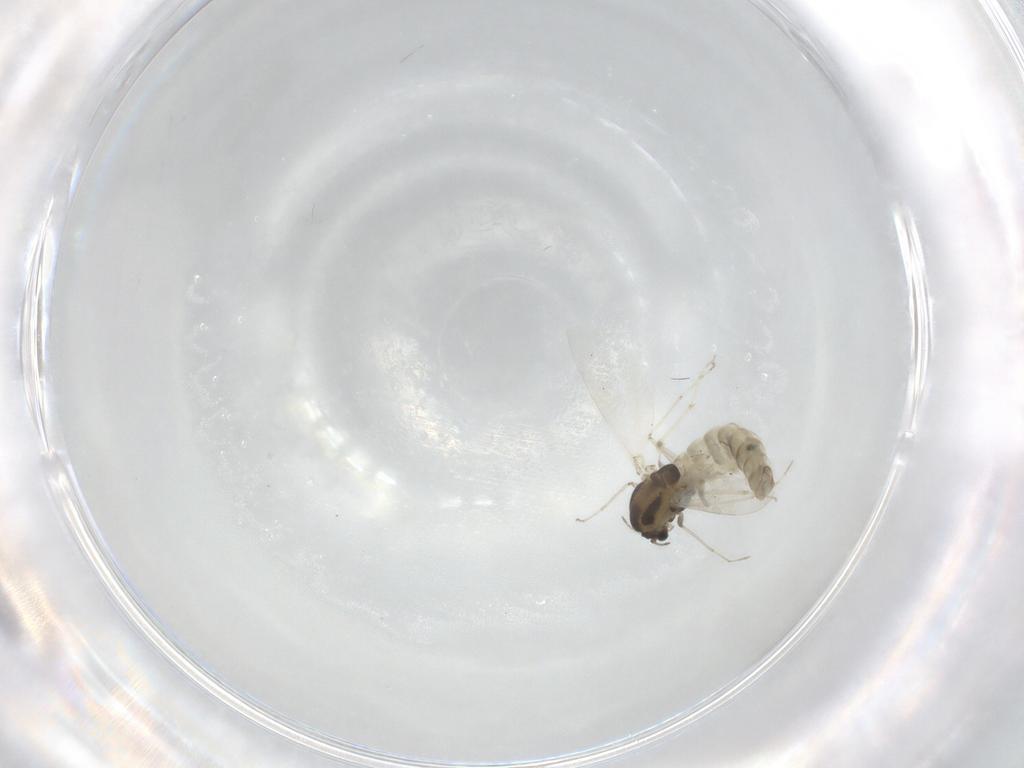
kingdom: Animalia
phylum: Arthropoda
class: Insecta
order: Diptera
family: Chironomidae
